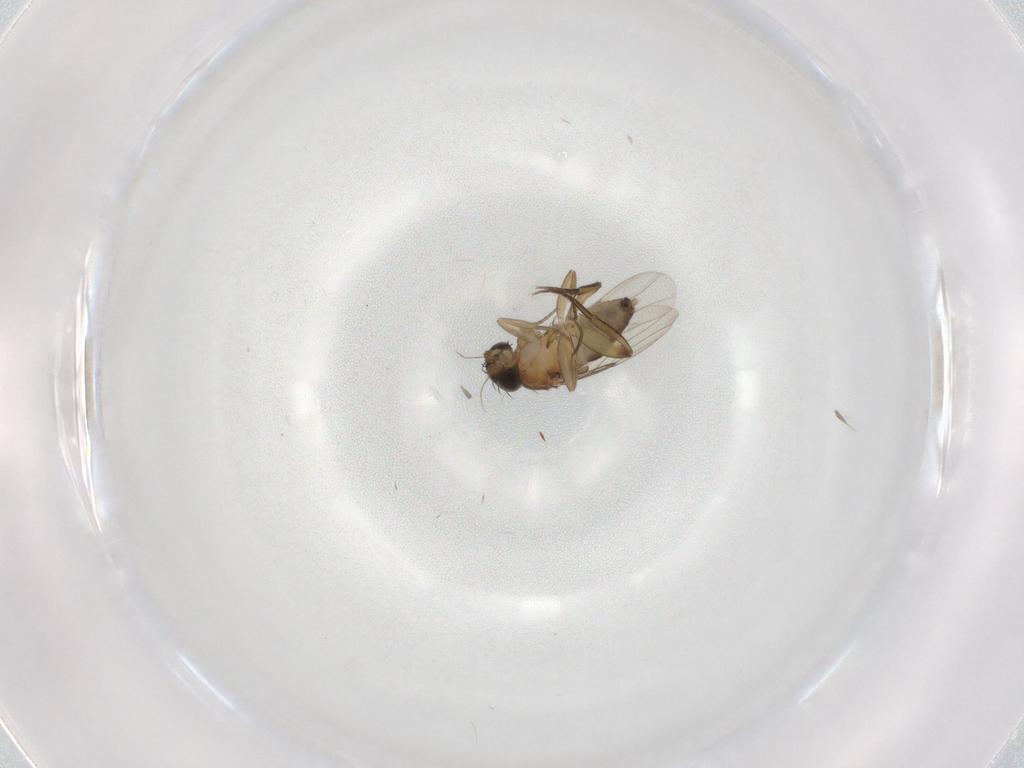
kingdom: Animalia
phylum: Arthropoda
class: Insecta
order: Diptera
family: Phoridae
